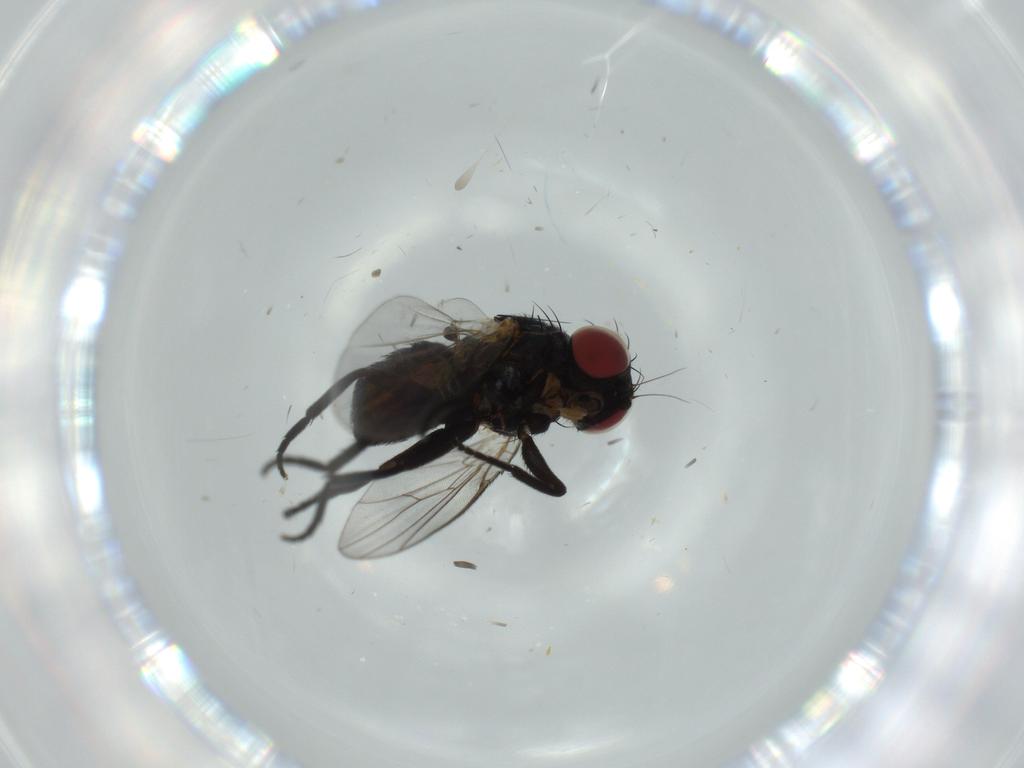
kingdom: Animalia
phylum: Arthropoda
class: Insecta
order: Diptera
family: Agromyzidae
